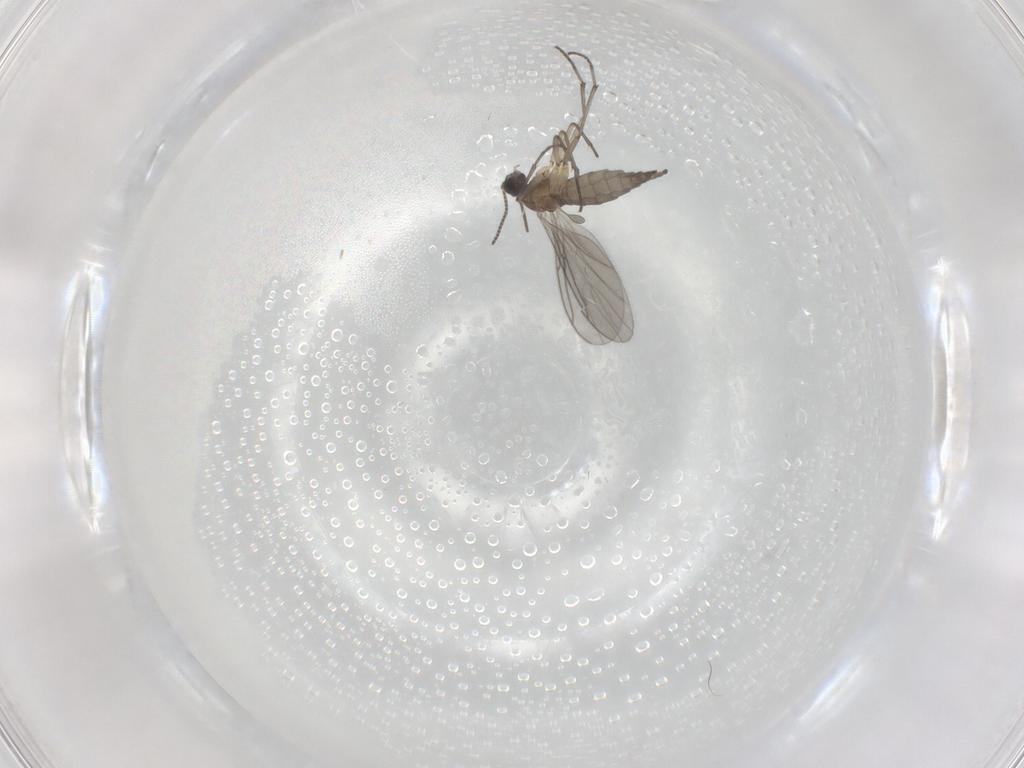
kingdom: Animalia
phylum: Arthropoda
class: Insecta
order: Diptera
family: Sciaridae
